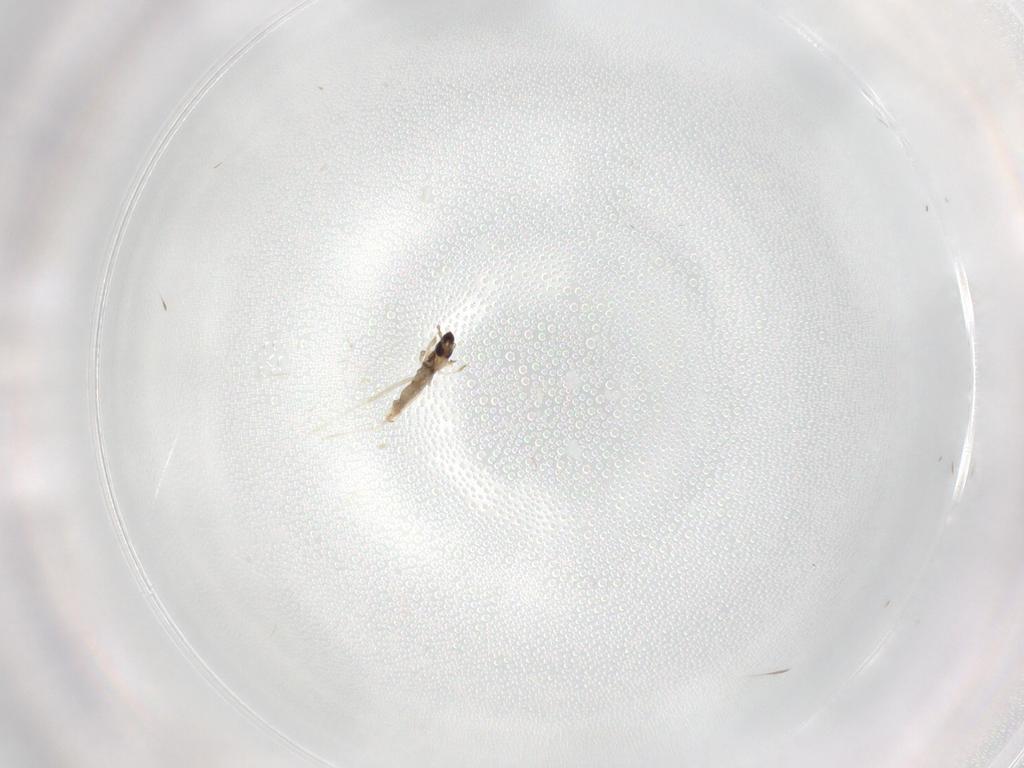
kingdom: Animalia
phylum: Arthropoda
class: Insecta
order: Diptera
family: Cecidomyiidae
